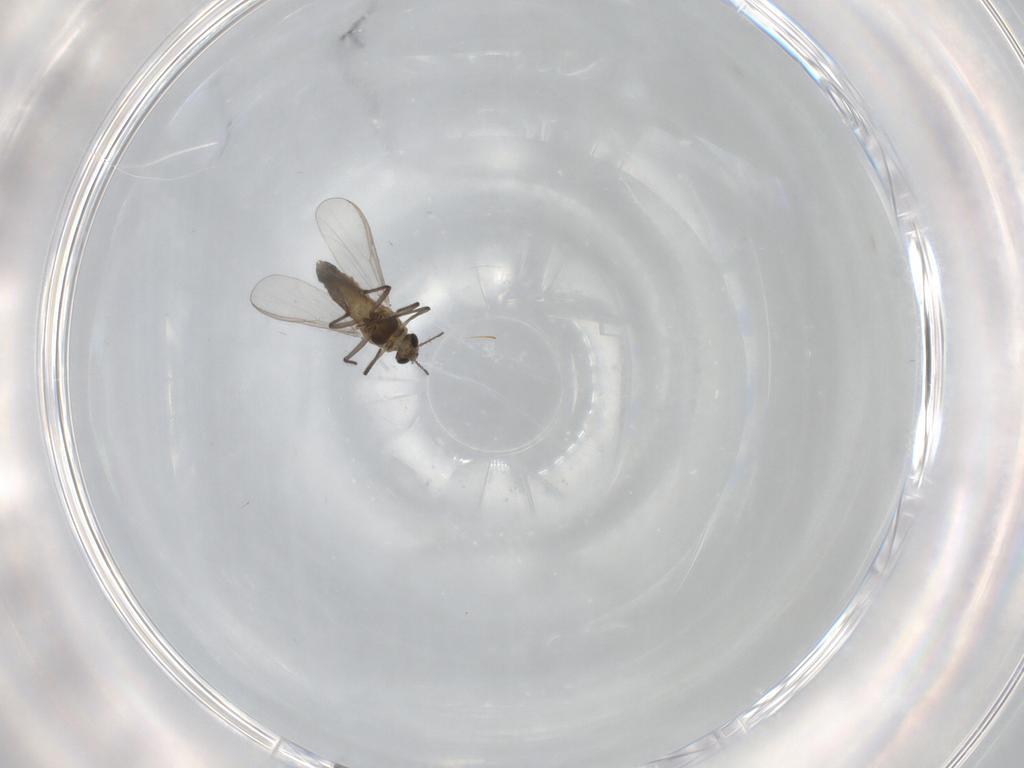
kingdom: Animalia
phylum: Arthropoda
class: Insecta
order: Diptera
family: Chironomidae
